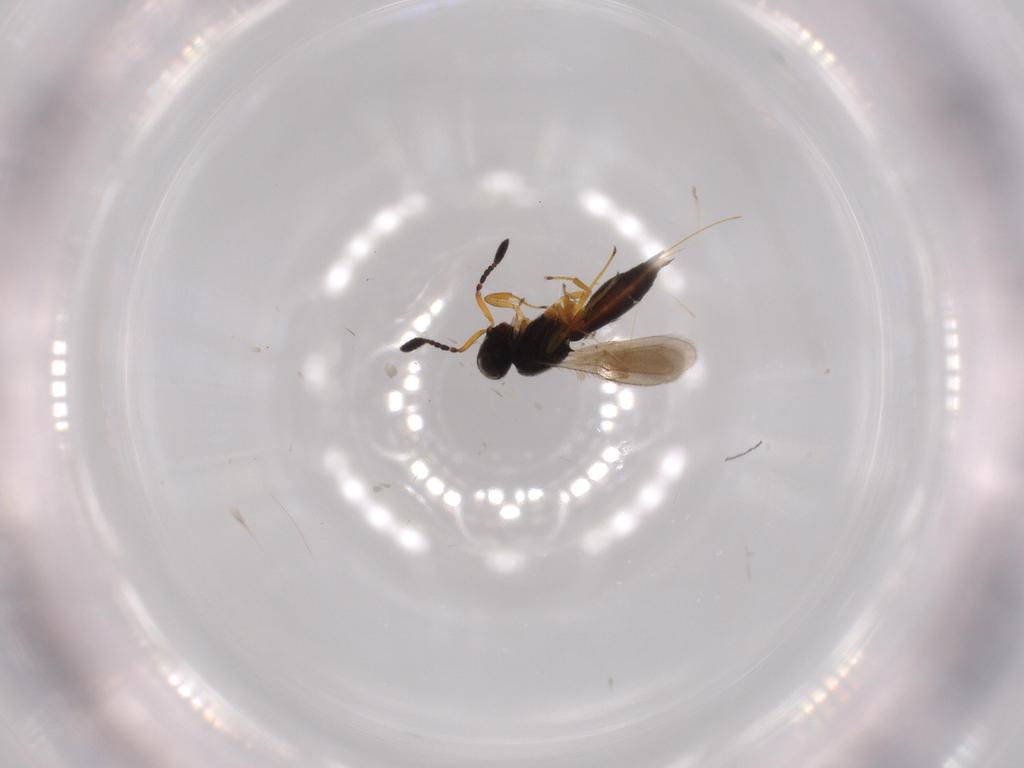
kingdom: Animalia
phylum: Arthropoda
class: Insecta
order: Hymenoptera
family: Scelionidae
